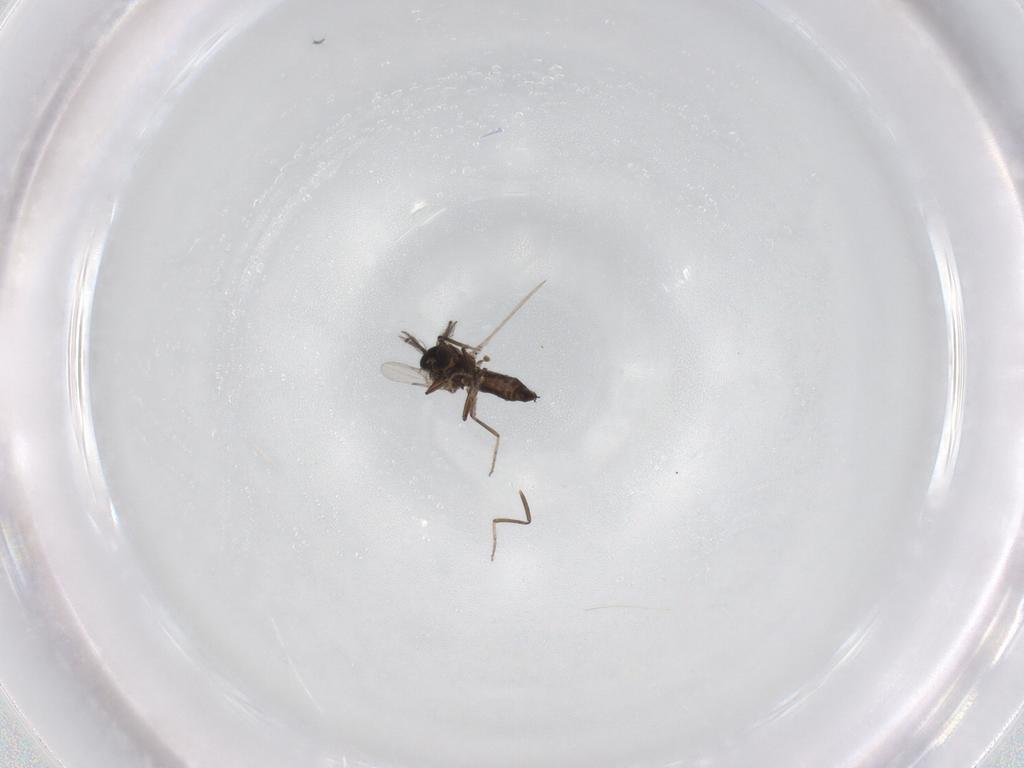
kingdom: Animalia
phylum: Arthropoda
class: Insecta
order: Diptera
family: Ceratopogonidae
